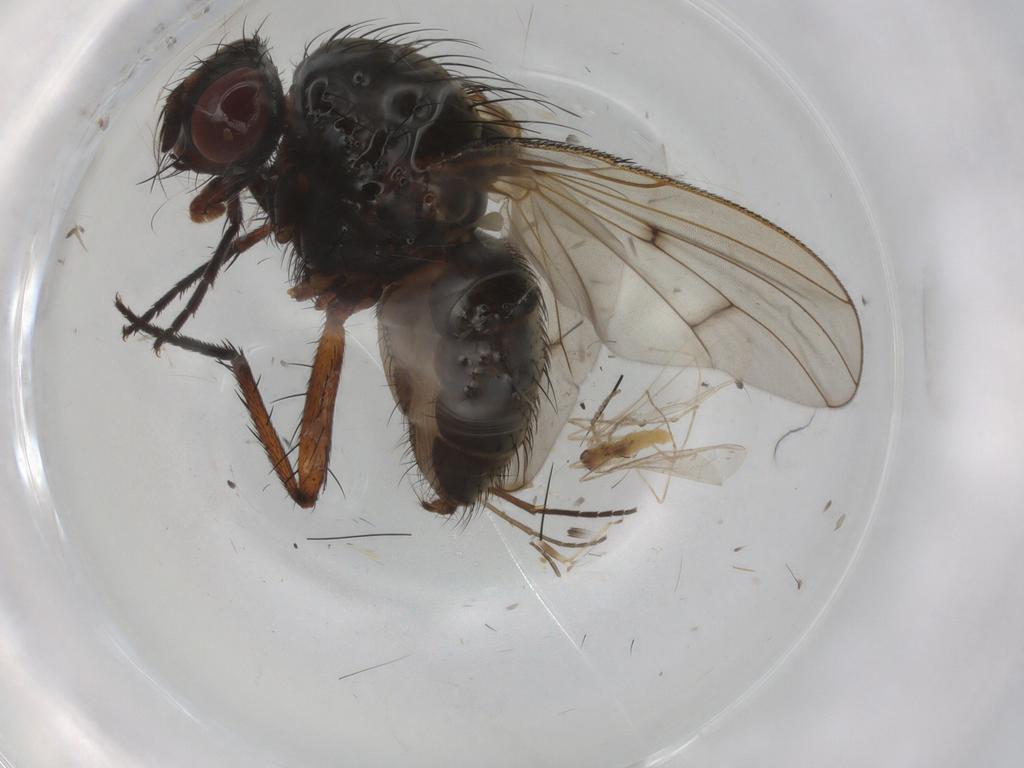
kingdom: Animalia
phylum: Arthropoda
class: Insecta
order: Diptera
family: Anthomyiidae
